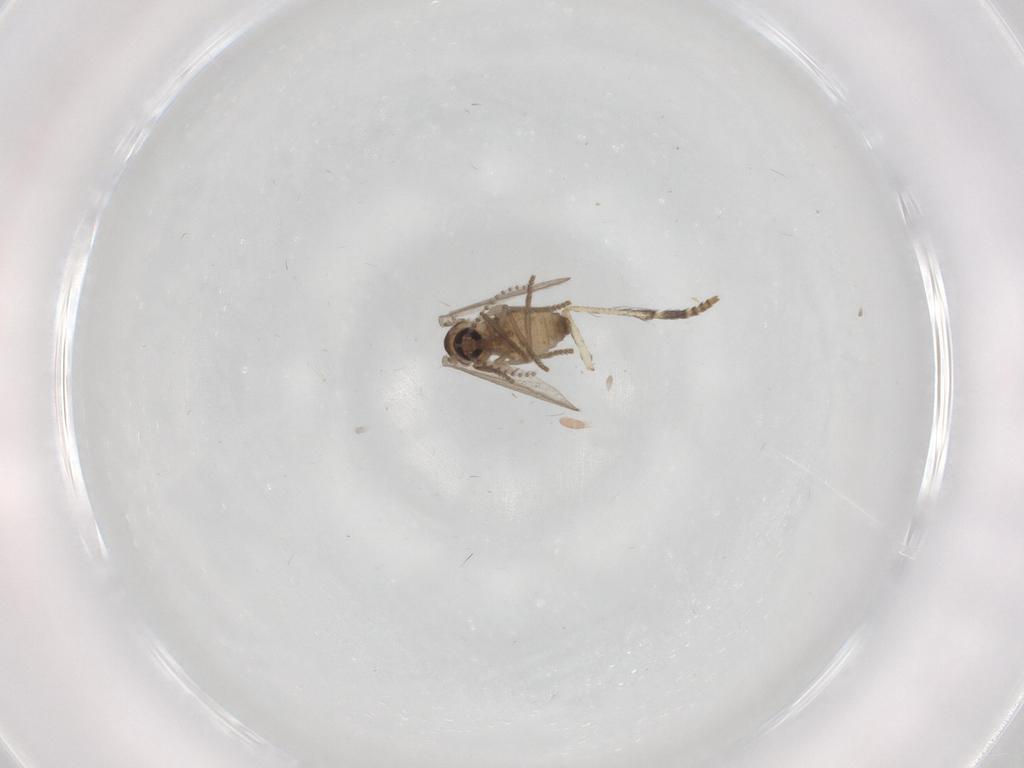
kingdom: Animalia
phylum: Arthropoda
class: Insecta
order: Diptera
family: Psychodidae
